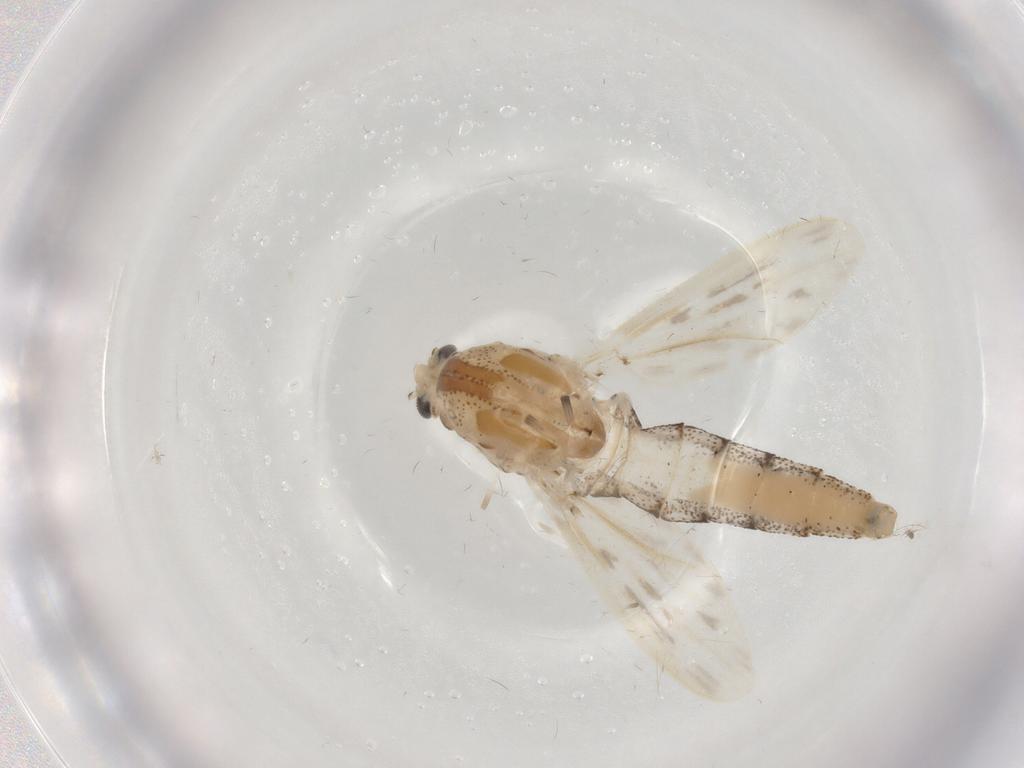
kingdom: Animalia
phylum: Arthropoda
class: Insecta
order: Diptera
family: Chaoboridae
